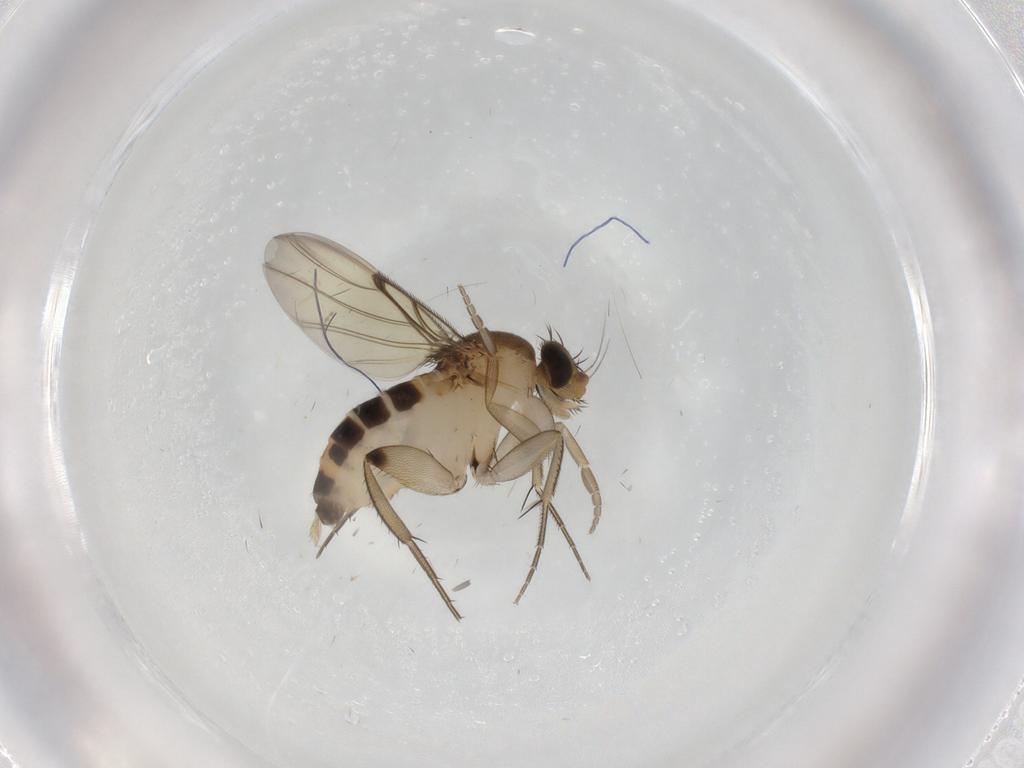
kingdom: Animalia
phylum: Arthropoda
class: Insecta
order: Diptera
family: Phoridae
